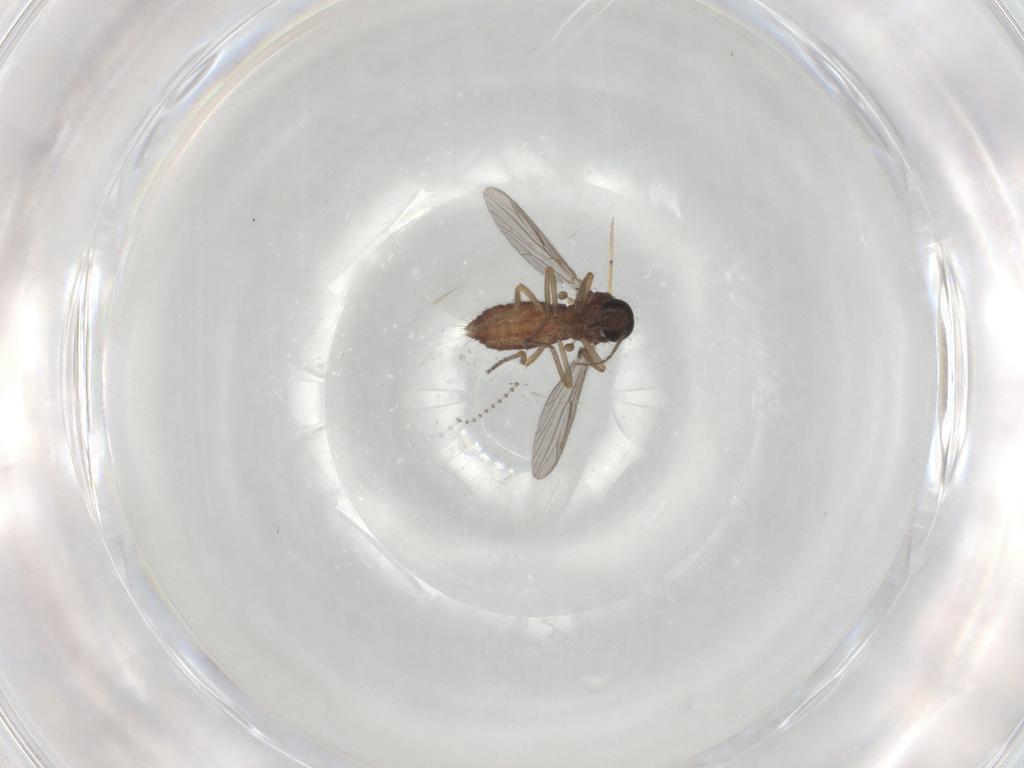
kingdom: Animalia
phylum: Arthropoda
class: Insecta
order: Diptera
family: Ceratopogonidae
